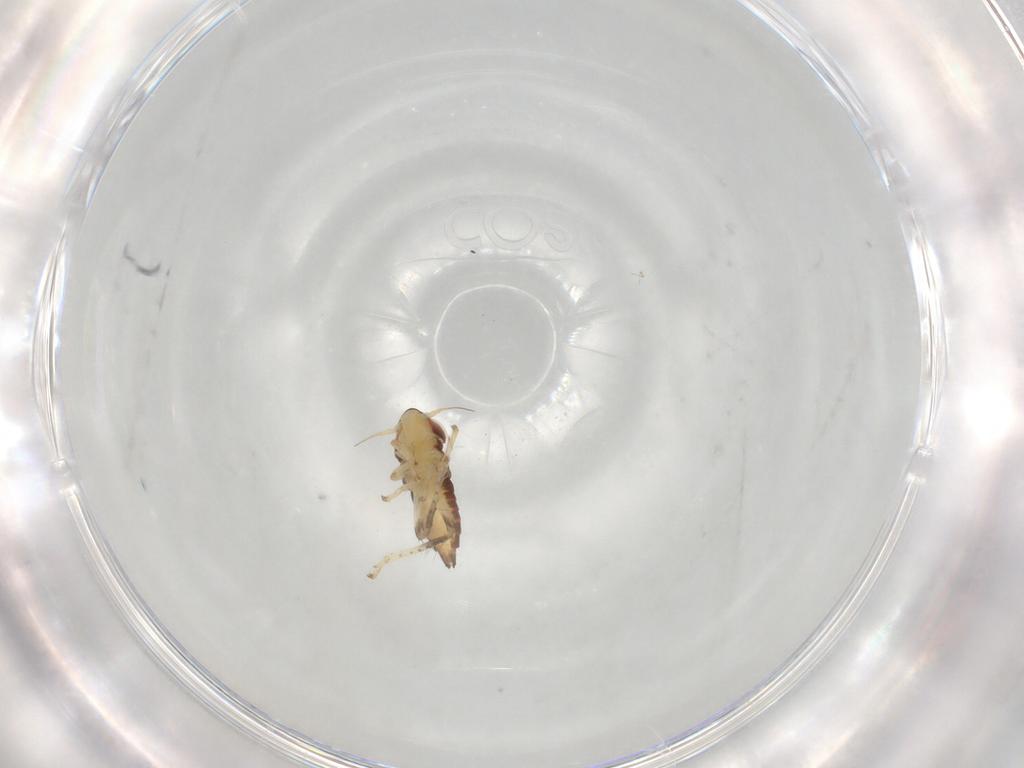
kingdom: Animalia
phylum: Arthropoda
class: Insecta
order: Hemiptera
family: Cicadellidae
